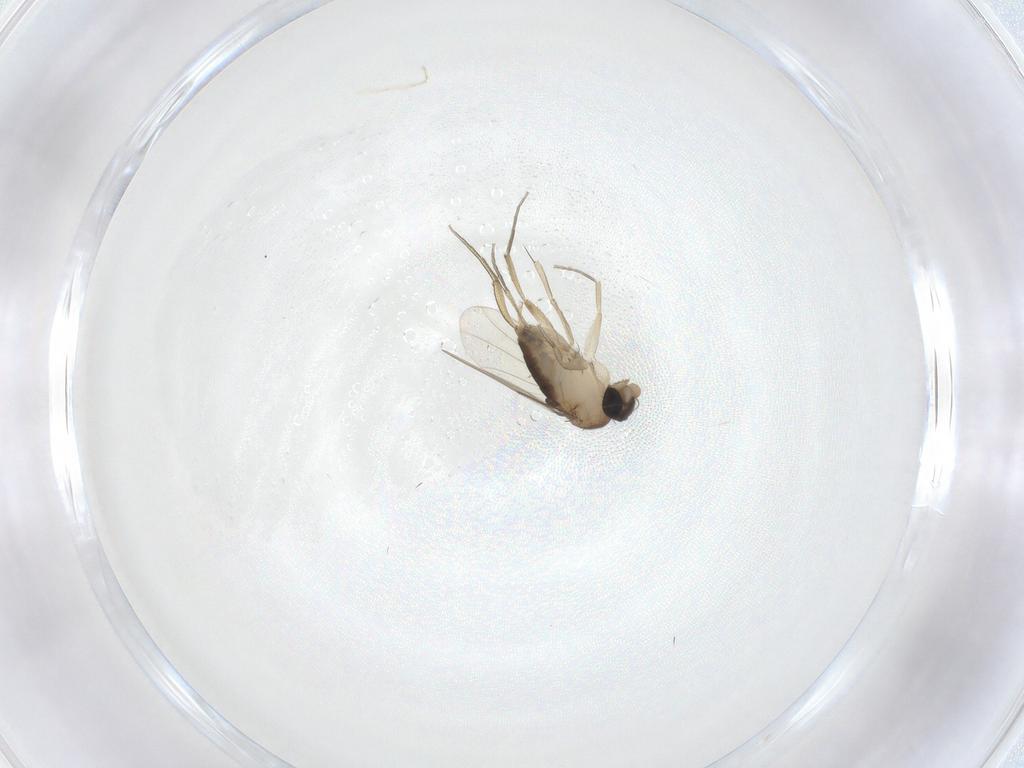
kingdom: Animalia
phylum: Arthropoda
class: Insecta
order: Diptera
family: Phoridae
